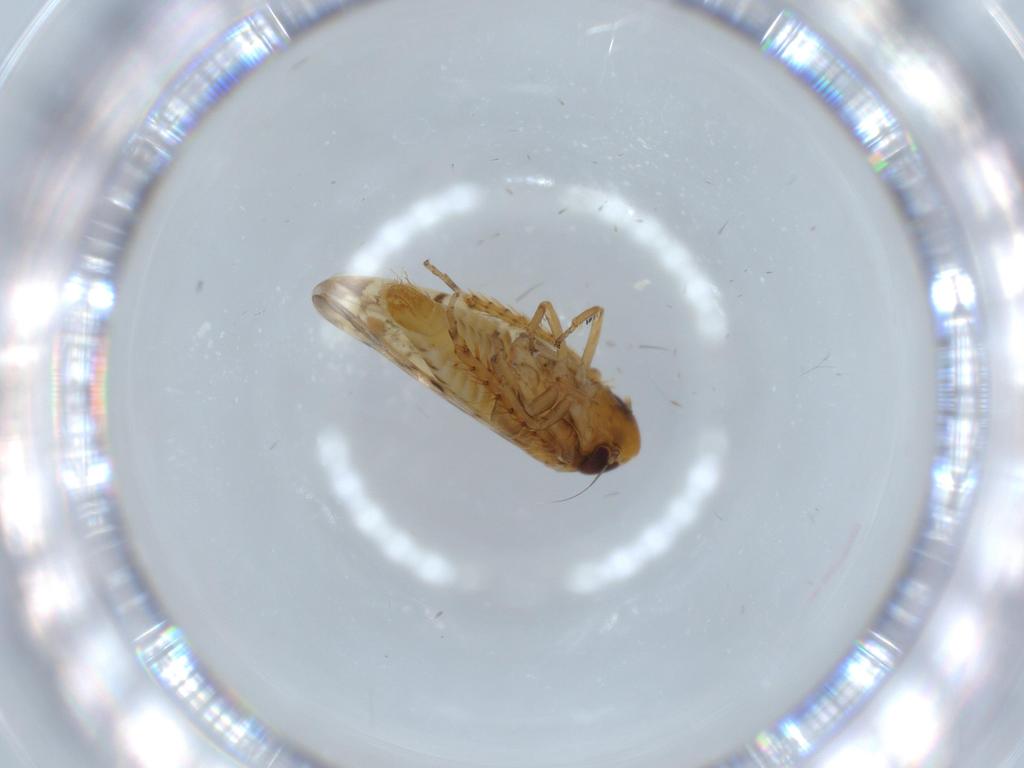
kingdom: Animalia
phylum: Arthropoda
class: Insecta
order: Hemiptera
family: Cicadellidae
